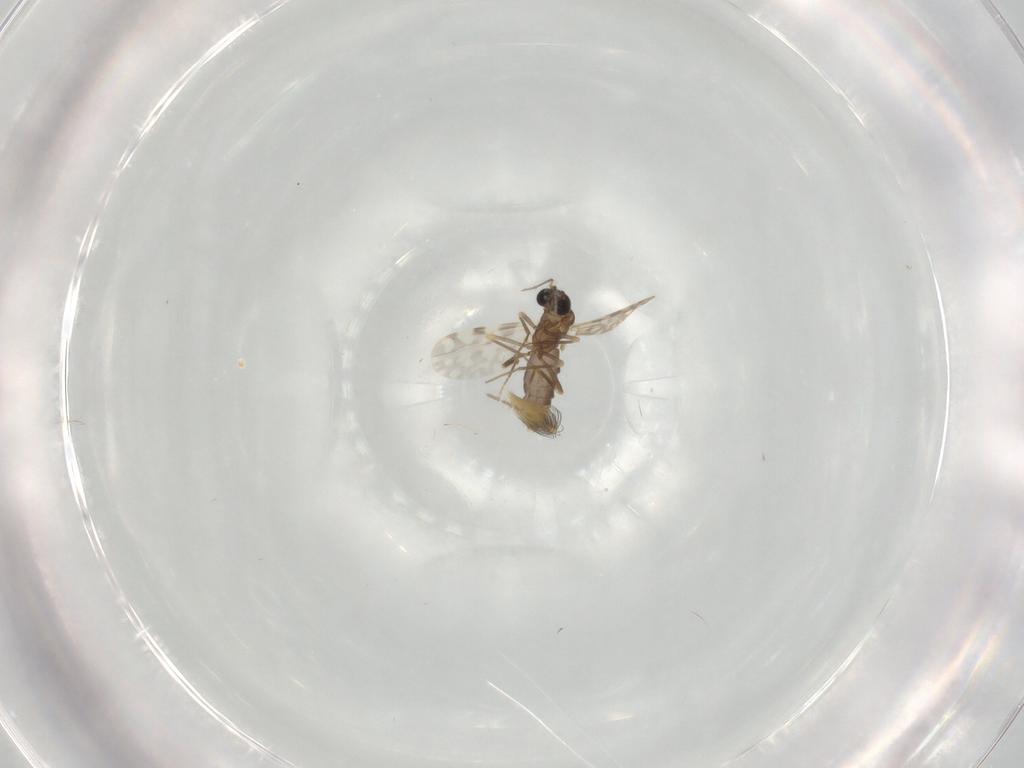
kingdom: Animalia
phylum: Arthropoda
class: Insecta
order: Diptera
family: Ceratopogonidae
